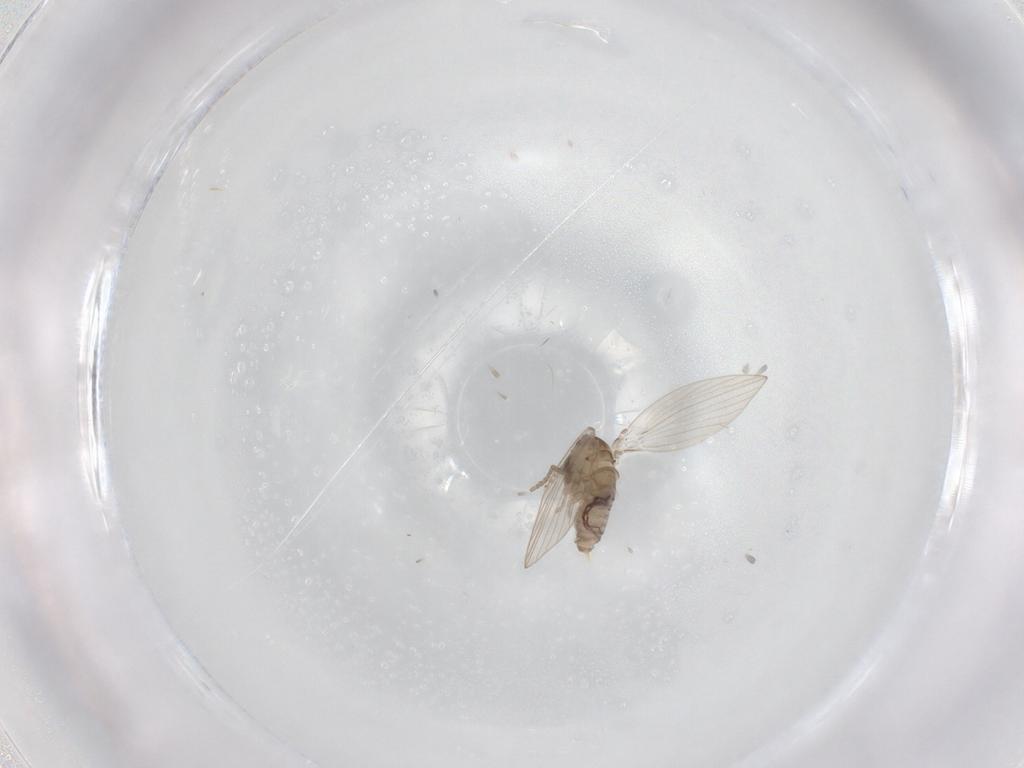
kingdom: Animalia
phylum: Arthropoda
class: Insecta
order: Diptera
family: Psychodidae
